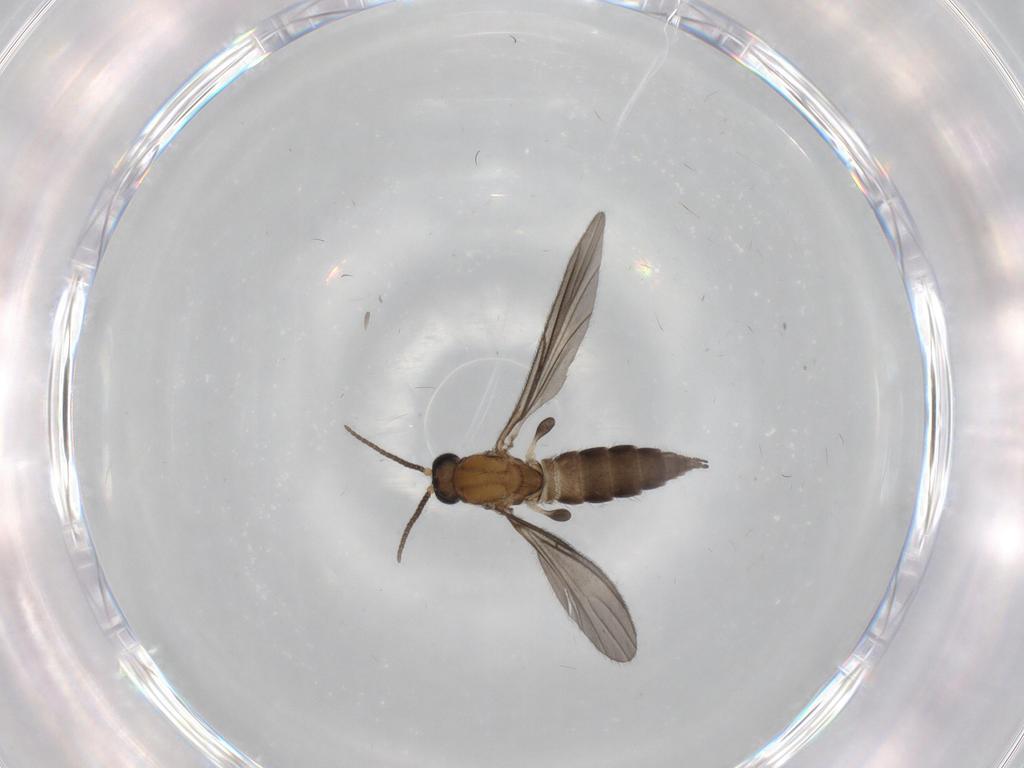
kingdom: Animalia
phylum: Arthropoda
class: Insecta
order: Diptera
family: Sciaridae
